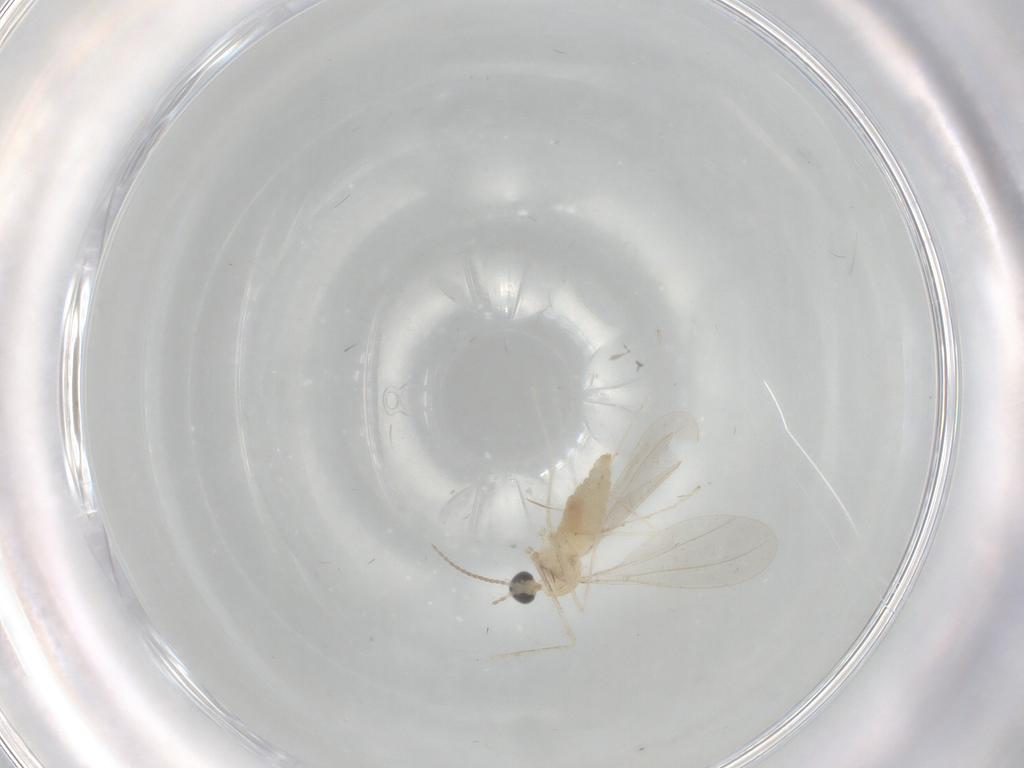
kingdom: Animalia
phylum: Arthropoda
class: Insecta
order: Diptera
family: Cecidomyiidae
